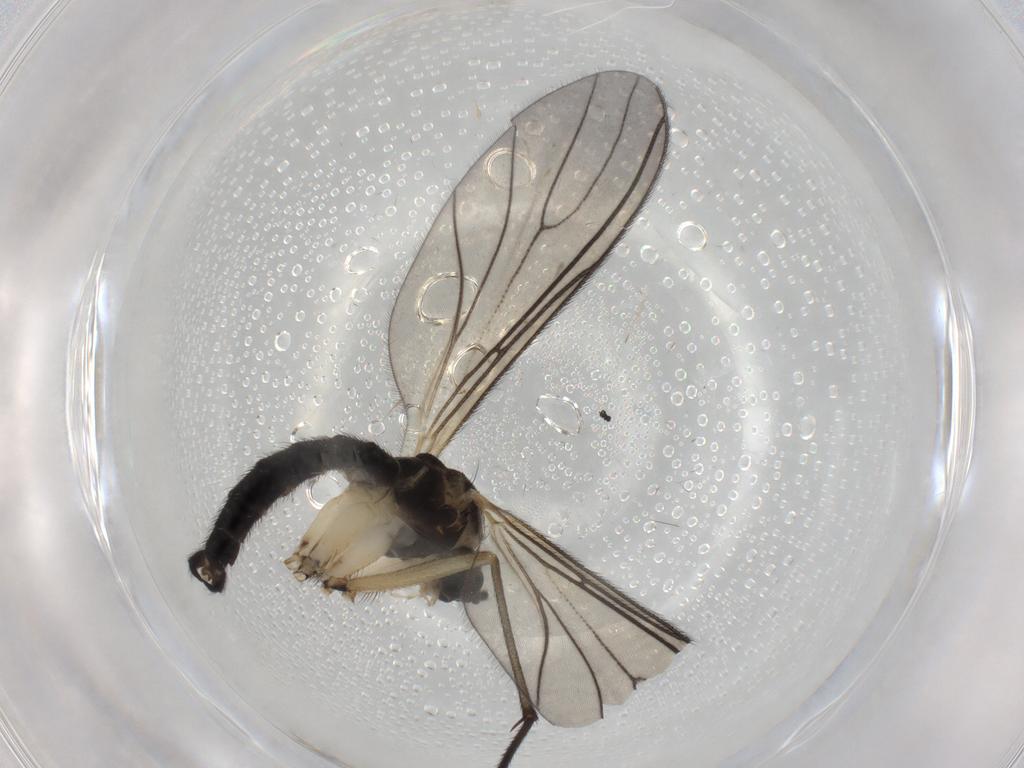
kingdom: Animalia
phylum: Arthropoda
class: Insecta
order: Diptera
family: Sciaridae
